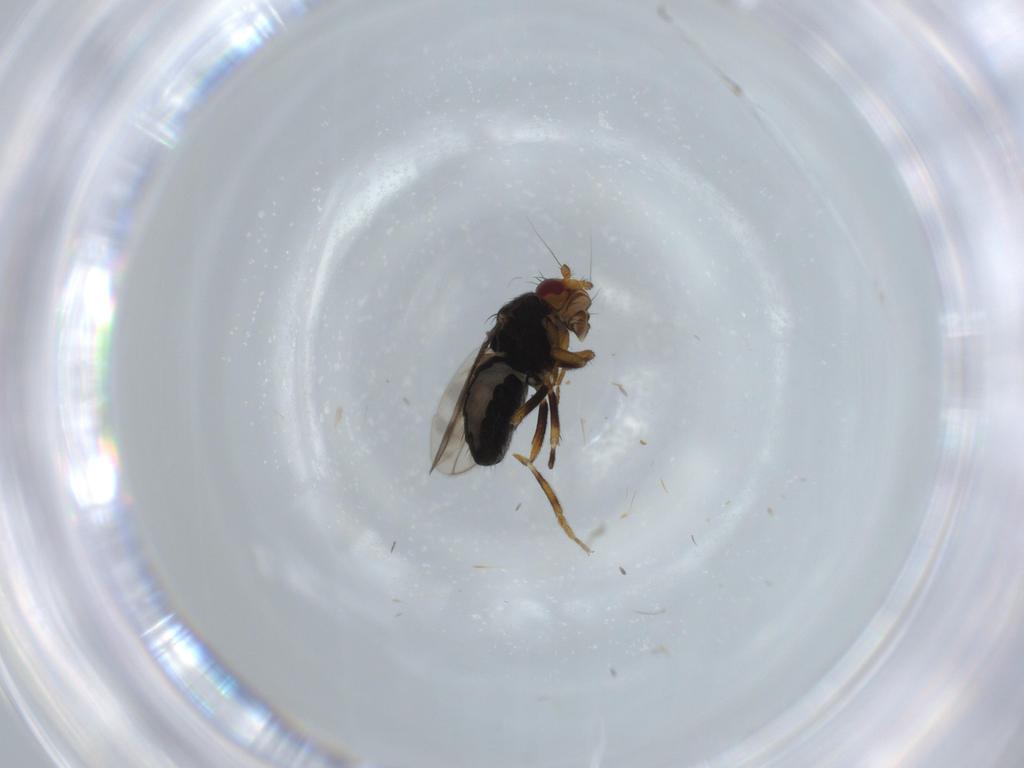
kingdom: Animalia
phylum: Arthropoda
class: Insecta
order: Diptera
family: Sphaeroceridae
